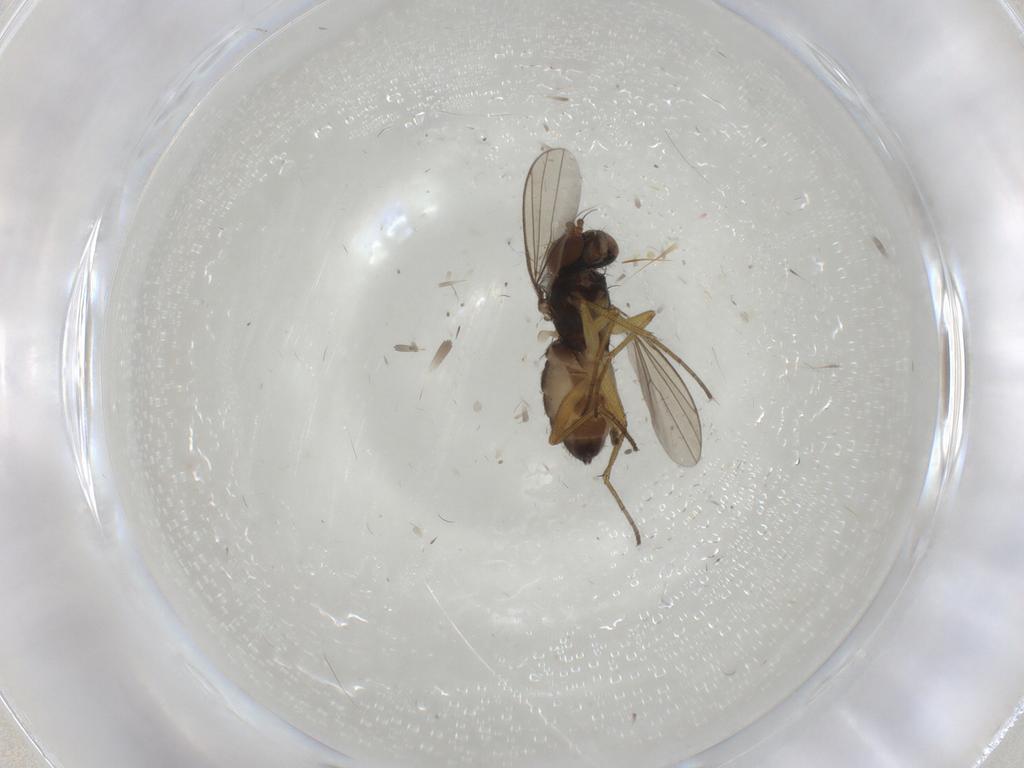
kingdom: Animalia
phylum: Arthropoda
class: Insecta
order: Diptera
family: Dolichopodidae
